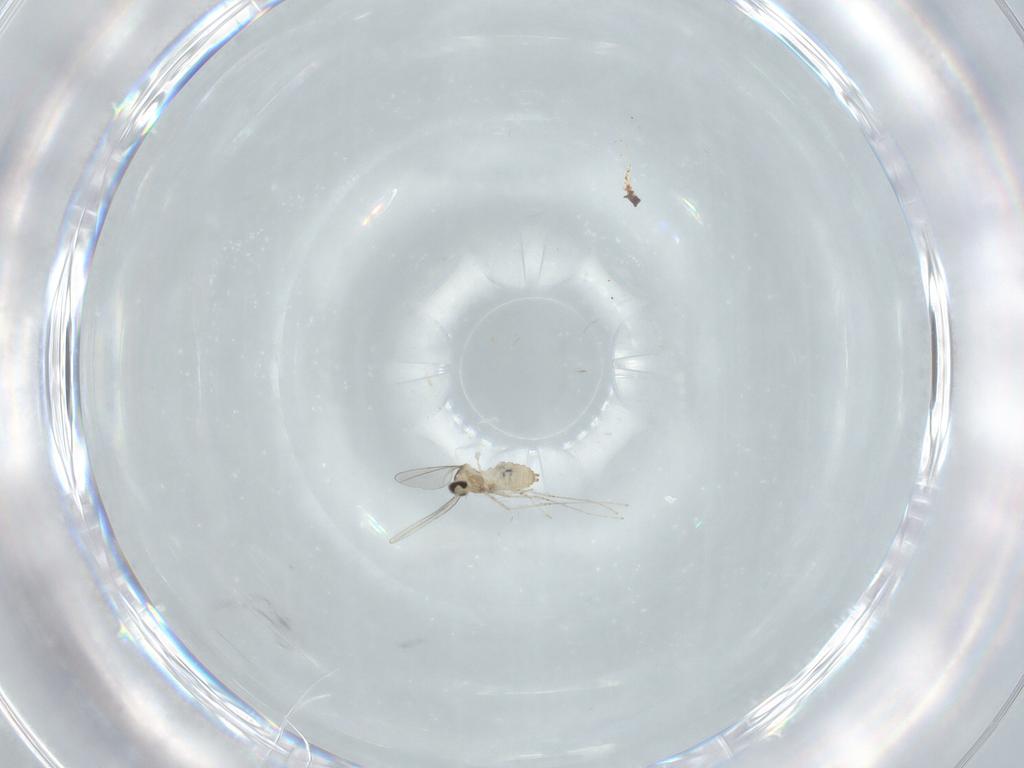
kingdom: Animalia
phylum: Arthropoda
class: Insecta
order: Diptera
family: Cecidomyiidae
